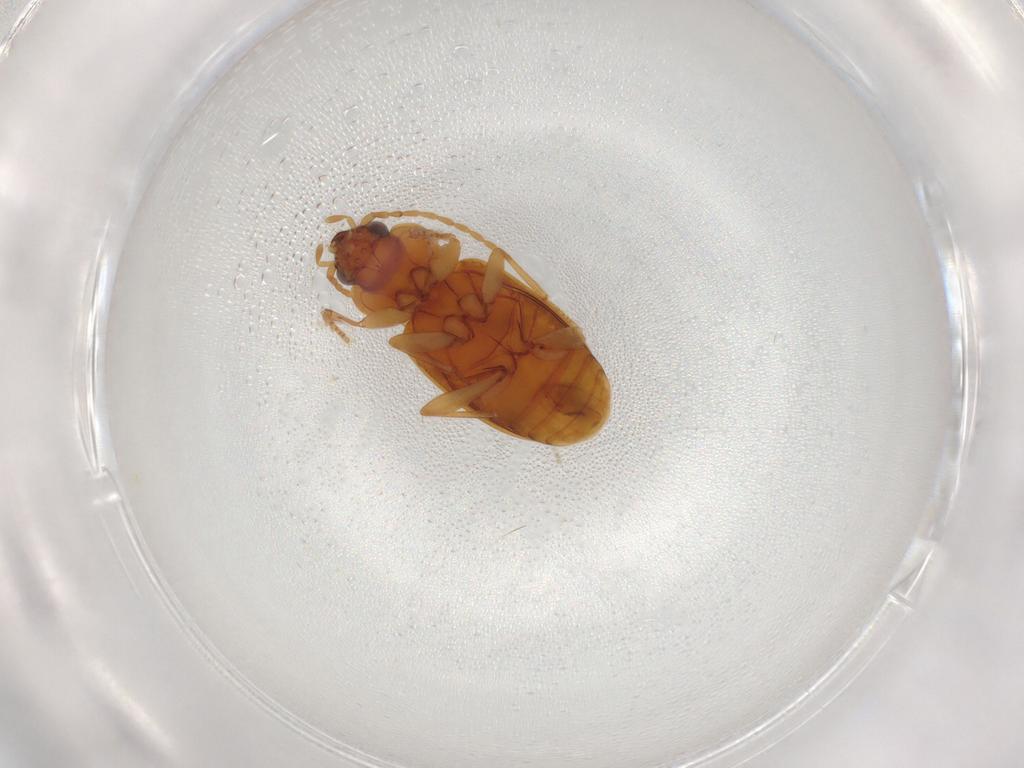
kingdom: Animalia
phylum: Arthropoda
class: Insecta
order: Coleoptera
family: Carabidae
